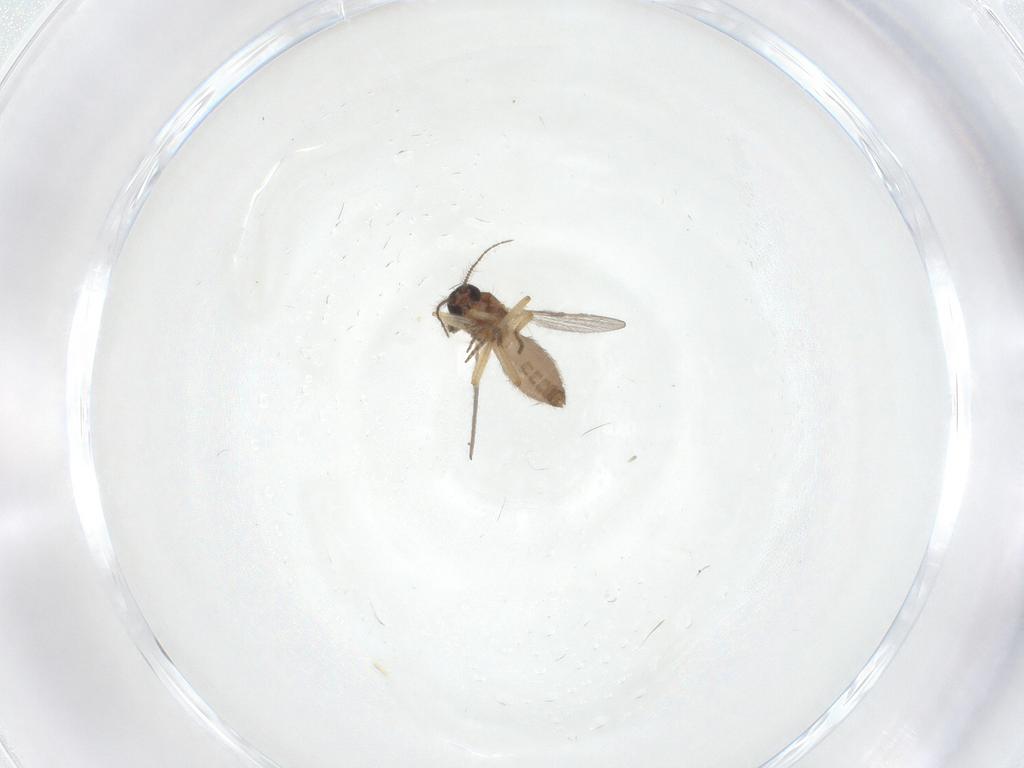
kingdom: Animalia
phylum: Arthropoda
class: Insecta
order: Diptera
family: Ceratopogonidae
